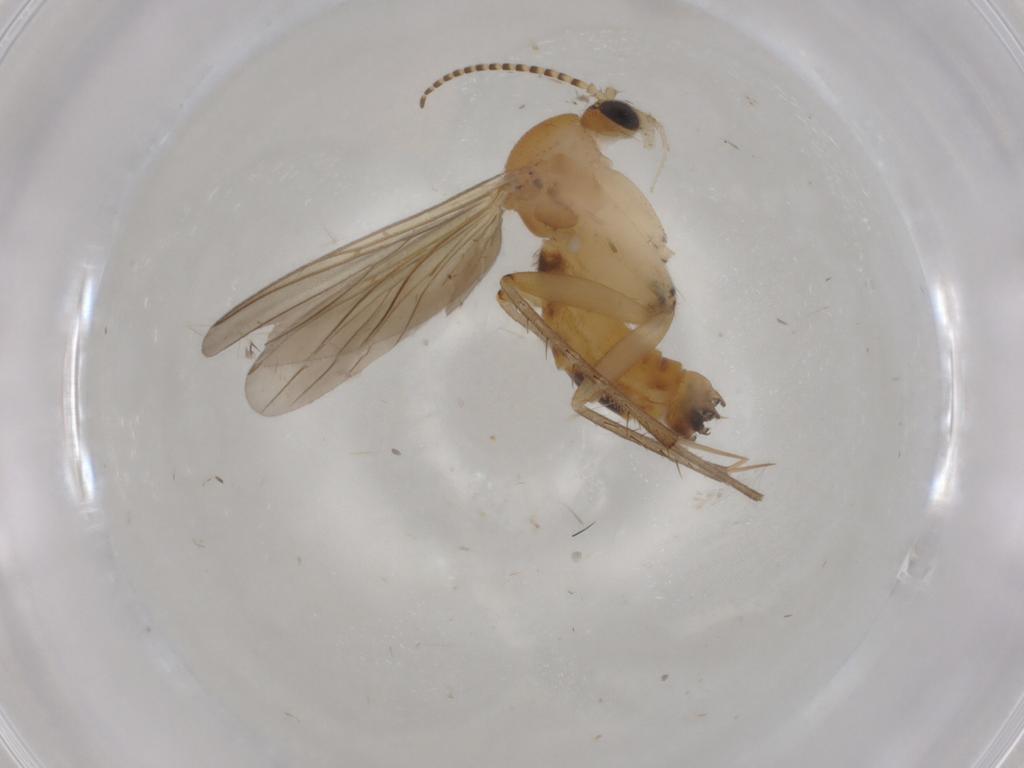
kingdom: Animalia
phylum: Arthropoda
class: Insecta
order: Diptera
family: Mycetophilidae
